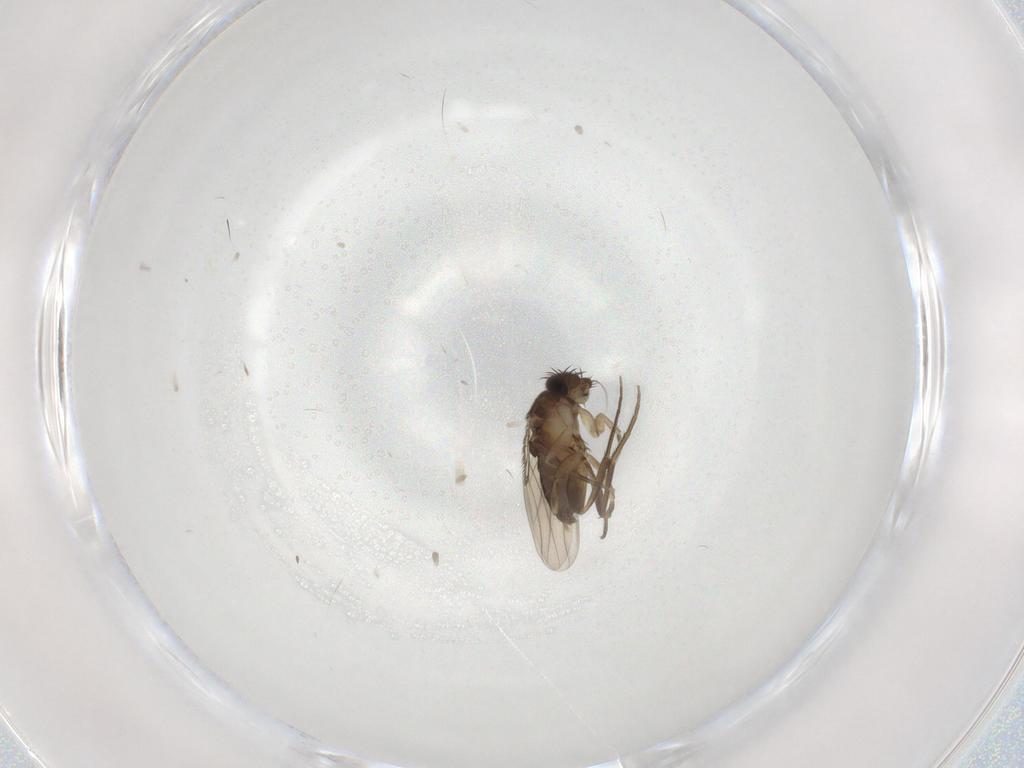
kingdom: Animalia
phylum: Arthropoda
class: Insecta
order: Diptera
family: Phoridae
